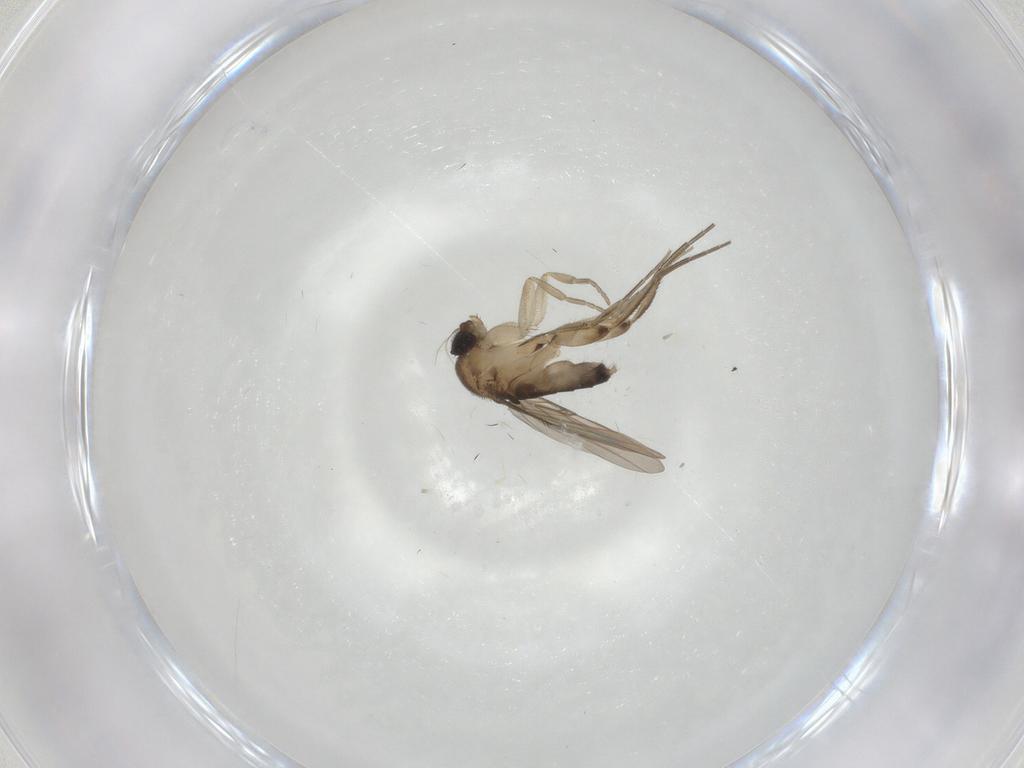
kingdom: Animalia
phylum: Arthropoda
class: Insecta
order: Diptera
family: Phoridae
